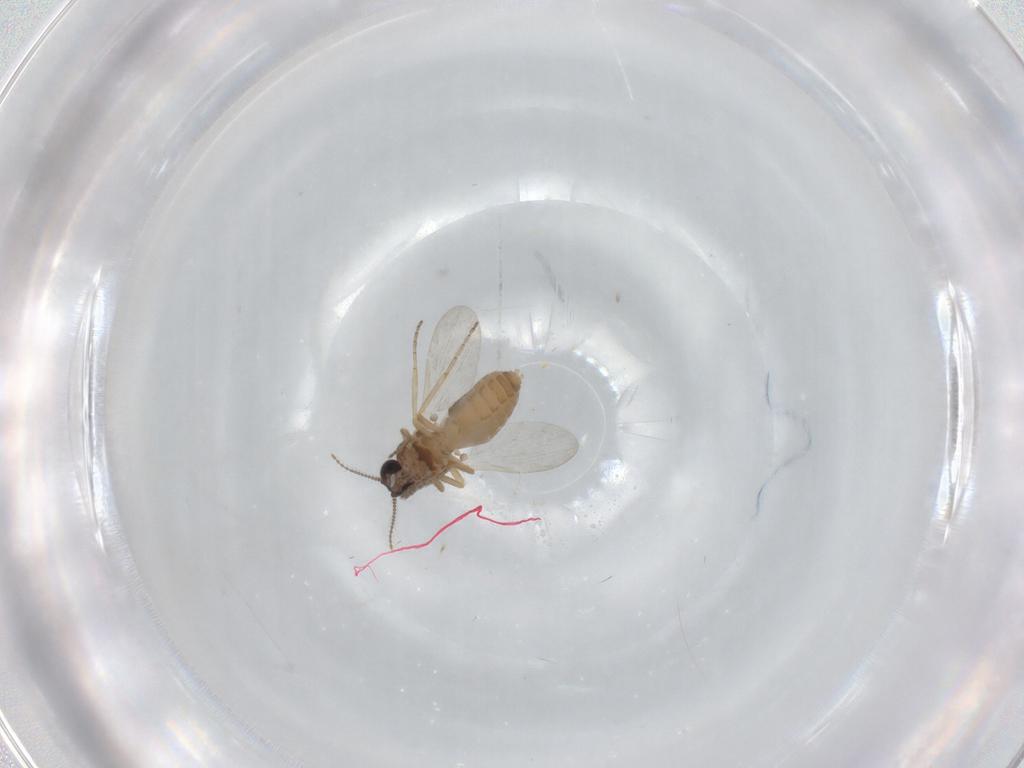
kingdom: Animalia
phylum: Arthropoda
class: Insecta
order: Diptera
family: Ceratopogonidae
